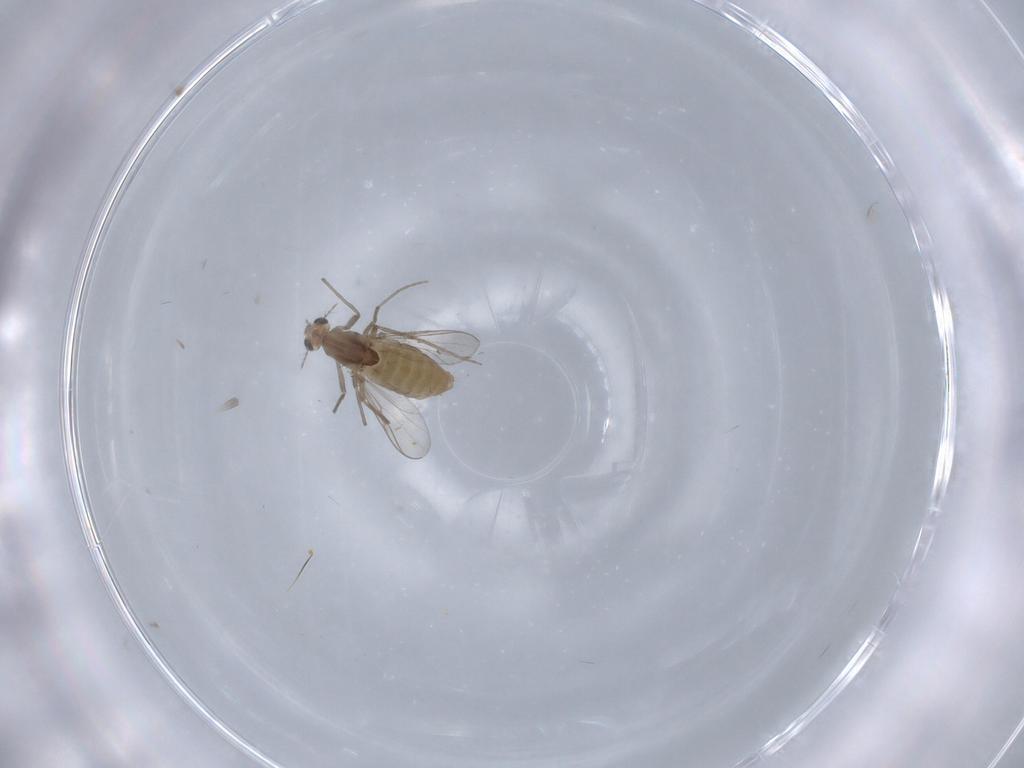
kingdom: Animalia
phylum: Arthropoda
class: Insecta
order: Diptera
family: Chironomidae
